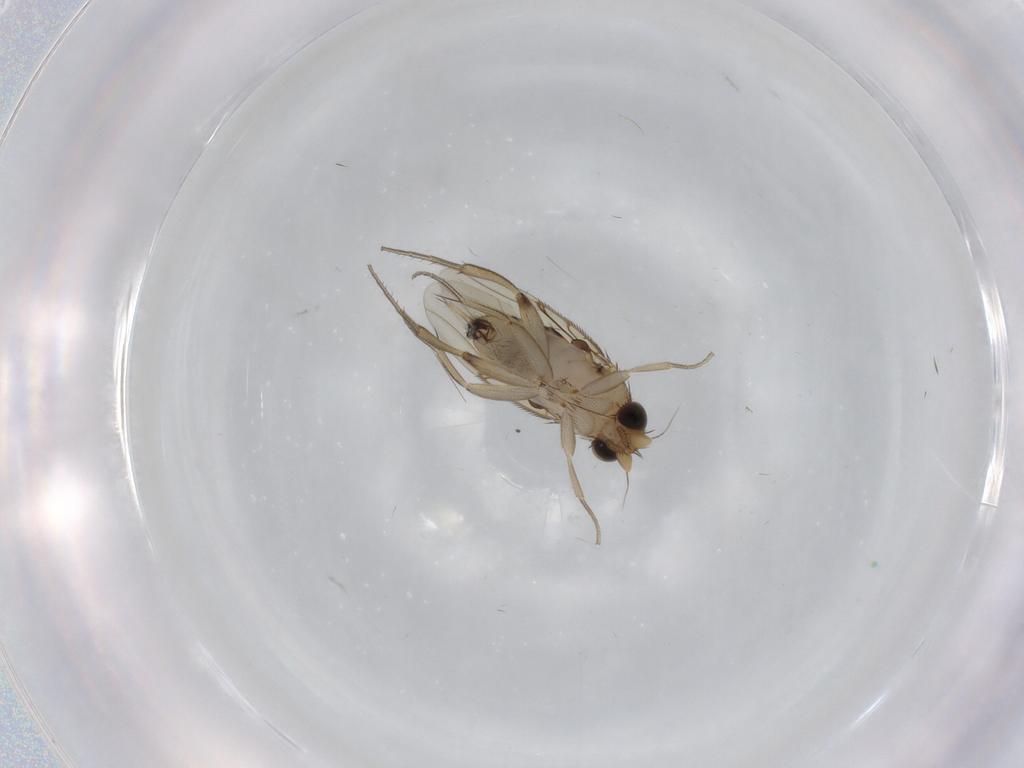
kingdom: Animalia
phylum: Arthropoda
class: Insecta
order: Diptera
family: Phoridae
